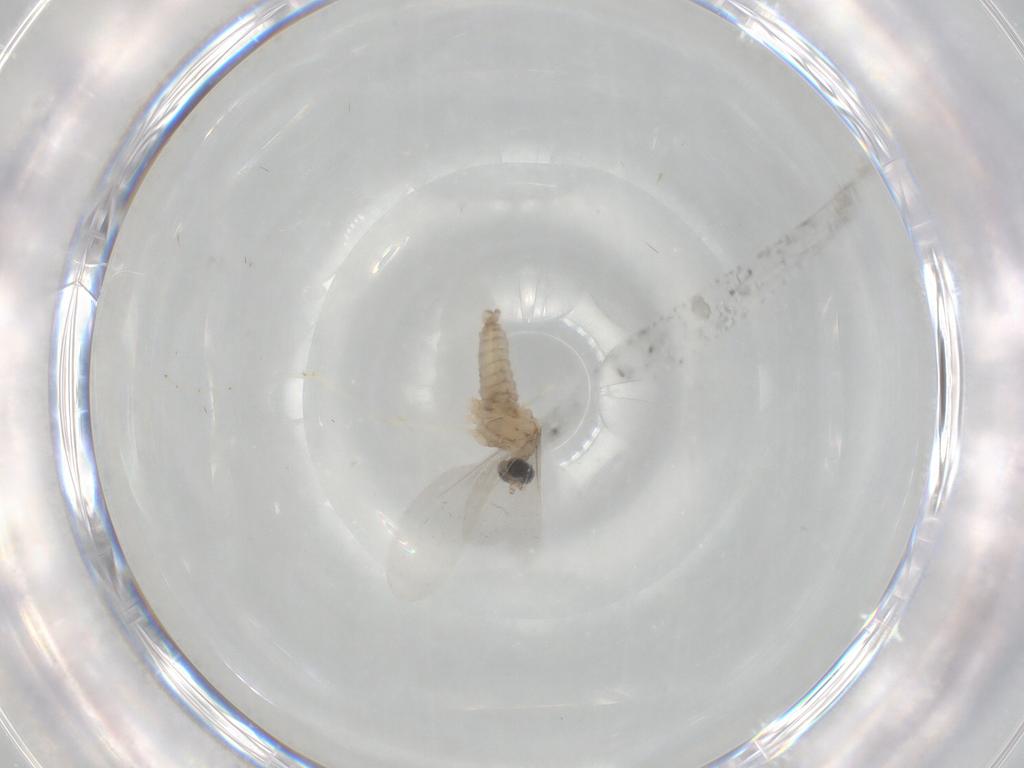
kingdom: Animalia
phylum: Arthropoda
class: Insecta
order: Diptera
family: Cecidomyiidae
